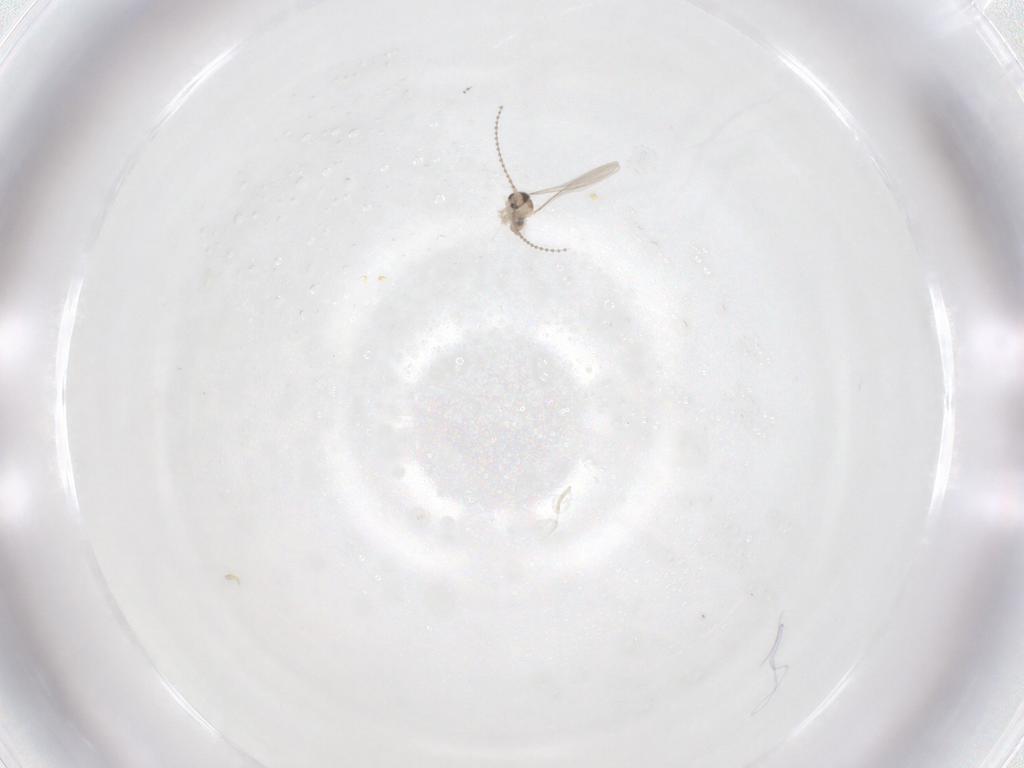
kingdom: Animalia
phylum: Arthropoda
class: Insecta
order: Diptera
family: Cecidomyiidae
